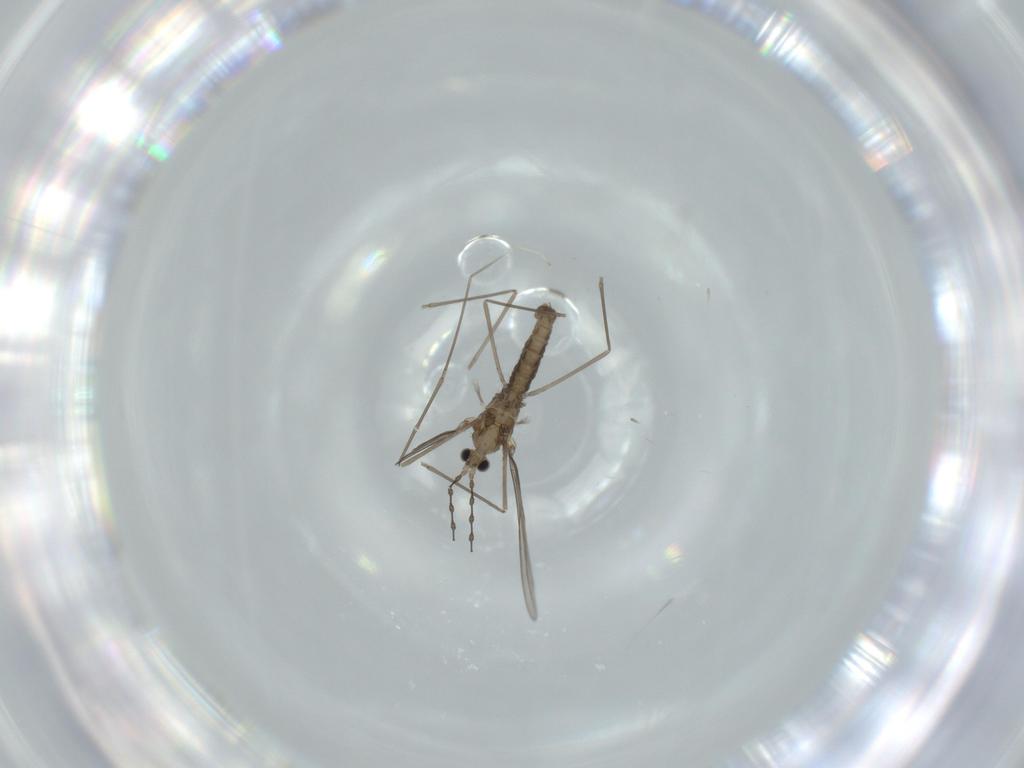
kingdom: Animalia
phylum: Arthropoda
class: Insecta
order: Diptera
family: Cecidomyiidae
